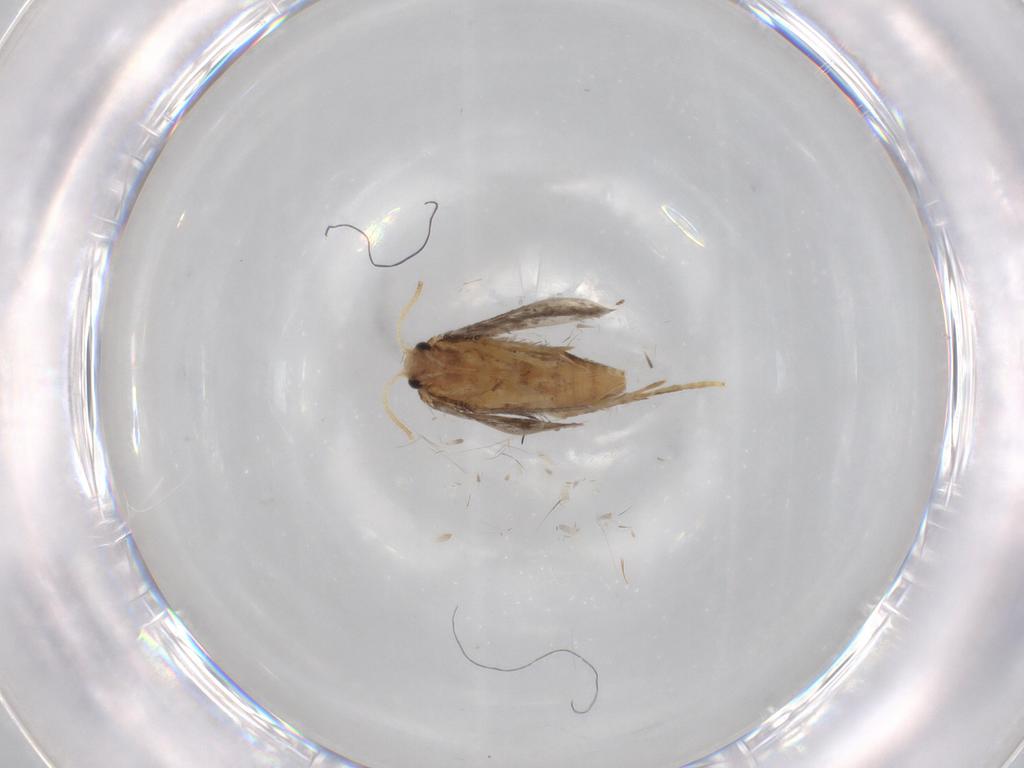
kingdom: Animalia
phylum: Arthropoda
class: Insecta
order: Lepidoptera
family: Nepticulidae
